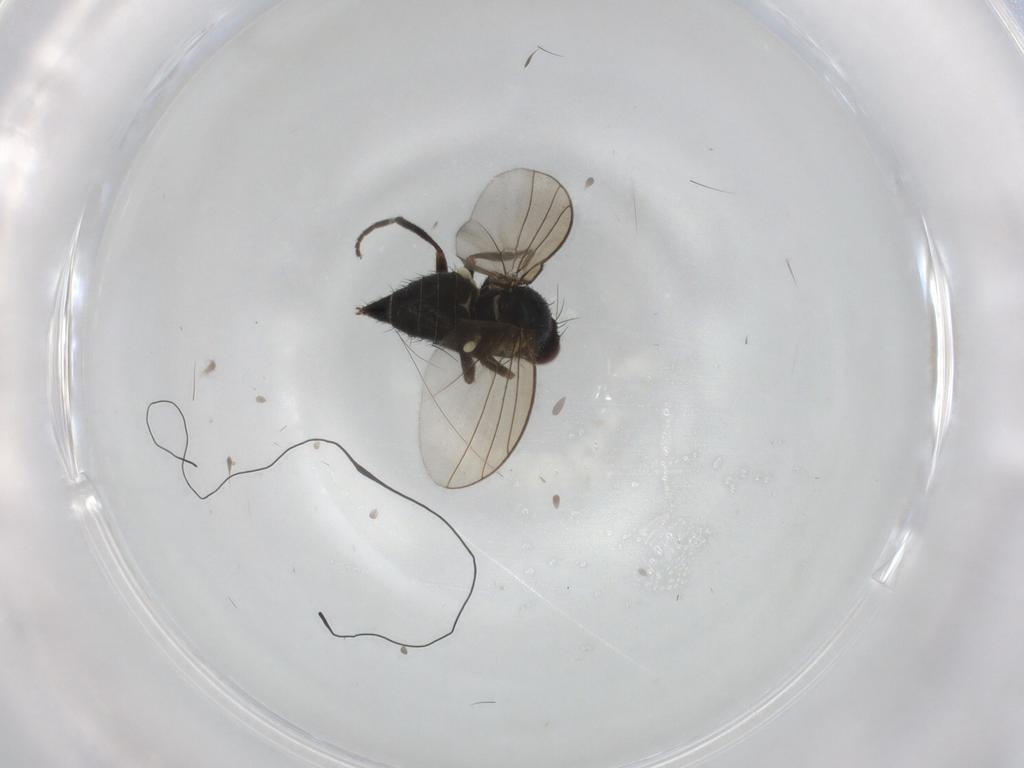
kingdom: Animalia
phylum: Arthropoda
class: Insecta
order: Diptera
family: Agromyzidae
